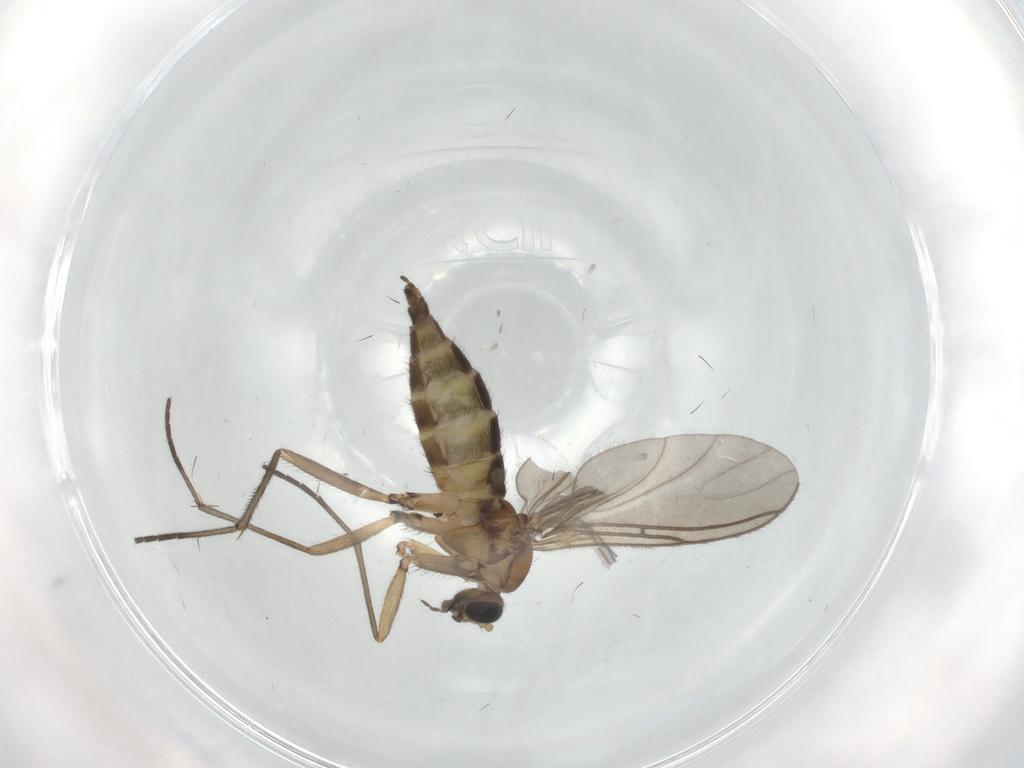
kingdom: Animalia
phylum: Arthropoda
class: Insecta
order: Diptera
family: Sciaridae
